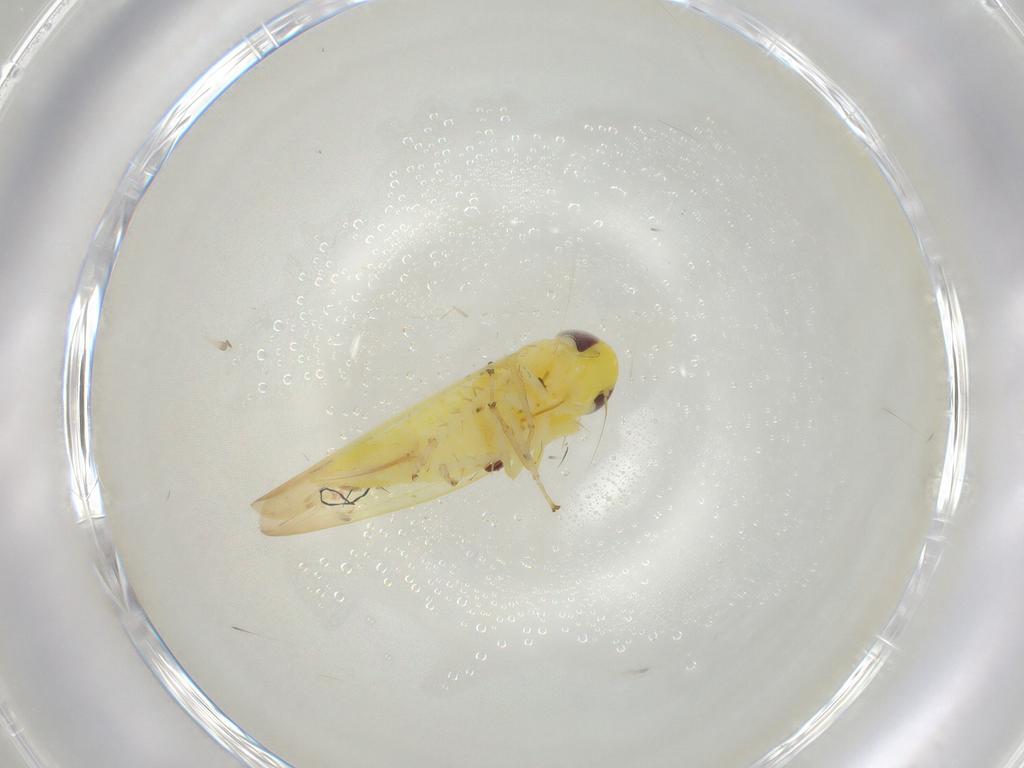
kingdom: Animalia
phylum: Arthropoda
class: Insecta
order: Hemiptera
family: Cicadellidae
